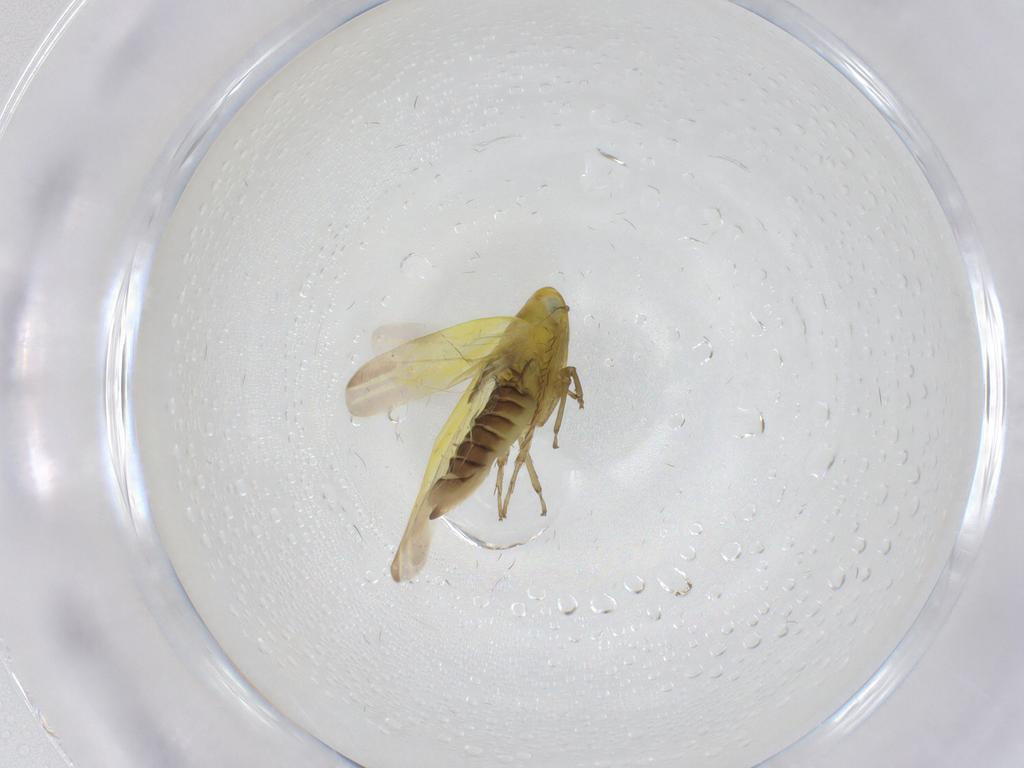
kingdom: Animalia
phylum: Arthropoda
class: Insecta
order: Hemiptera
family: Cicadellidae
